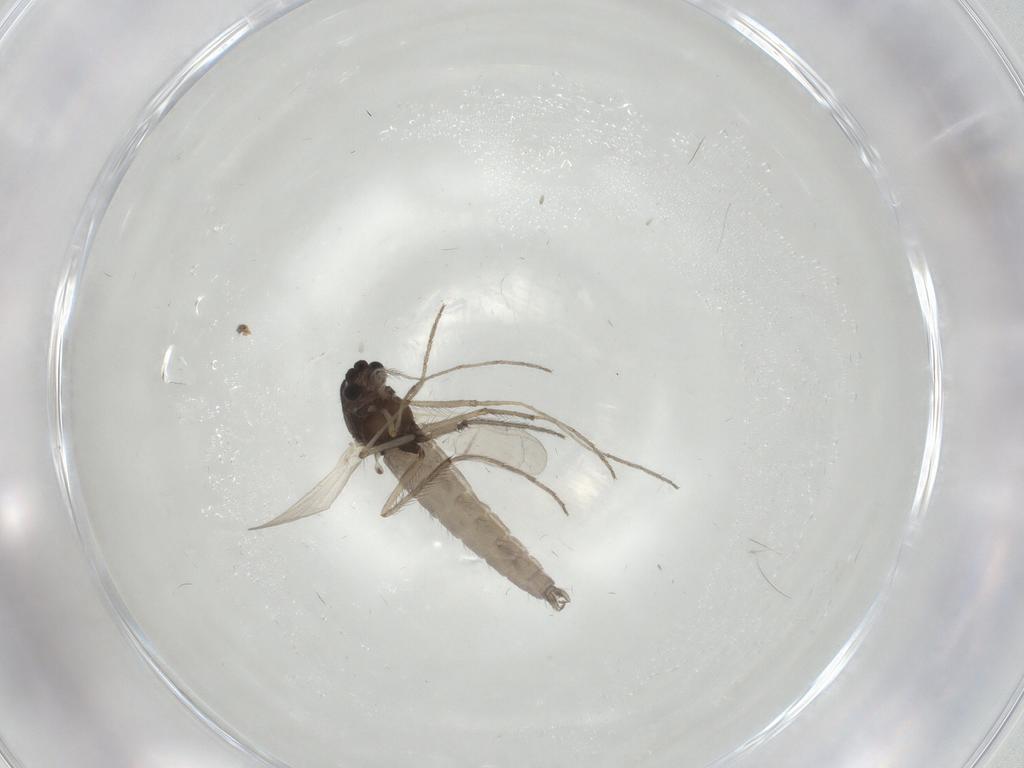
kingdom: Animalia
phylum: Arthropoda
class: Insecta
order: Diptera
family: Chironomidae
